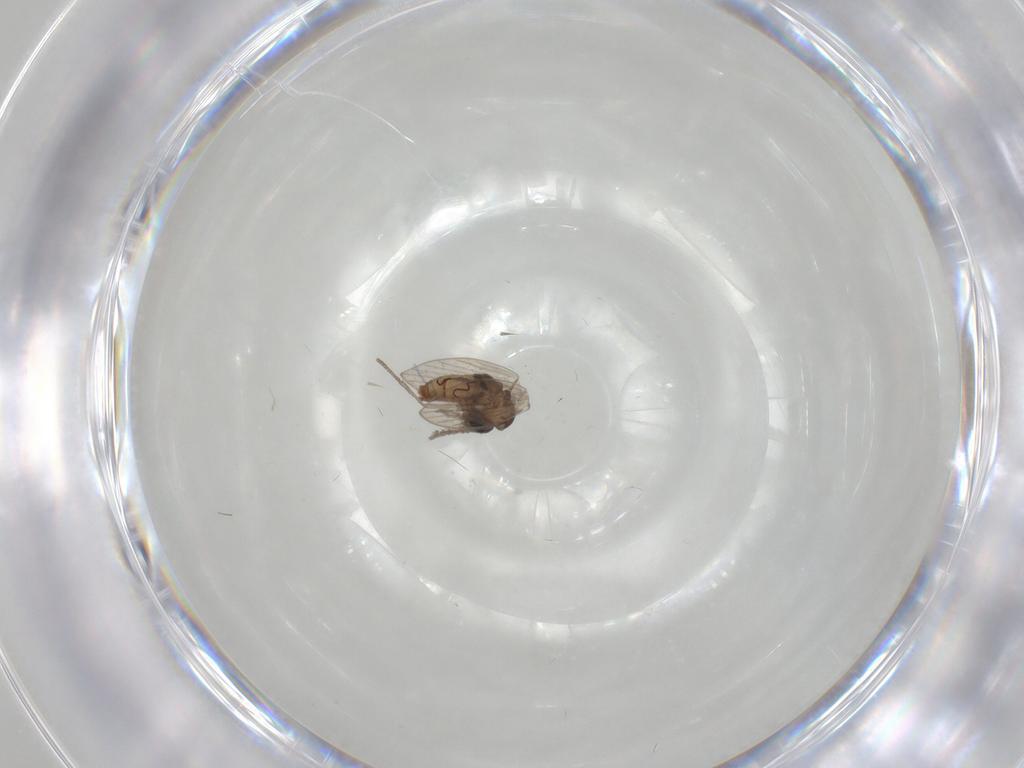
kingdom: Animalia
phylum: Arthropoda
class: Insecta
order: Diptera
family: Psychodidae
